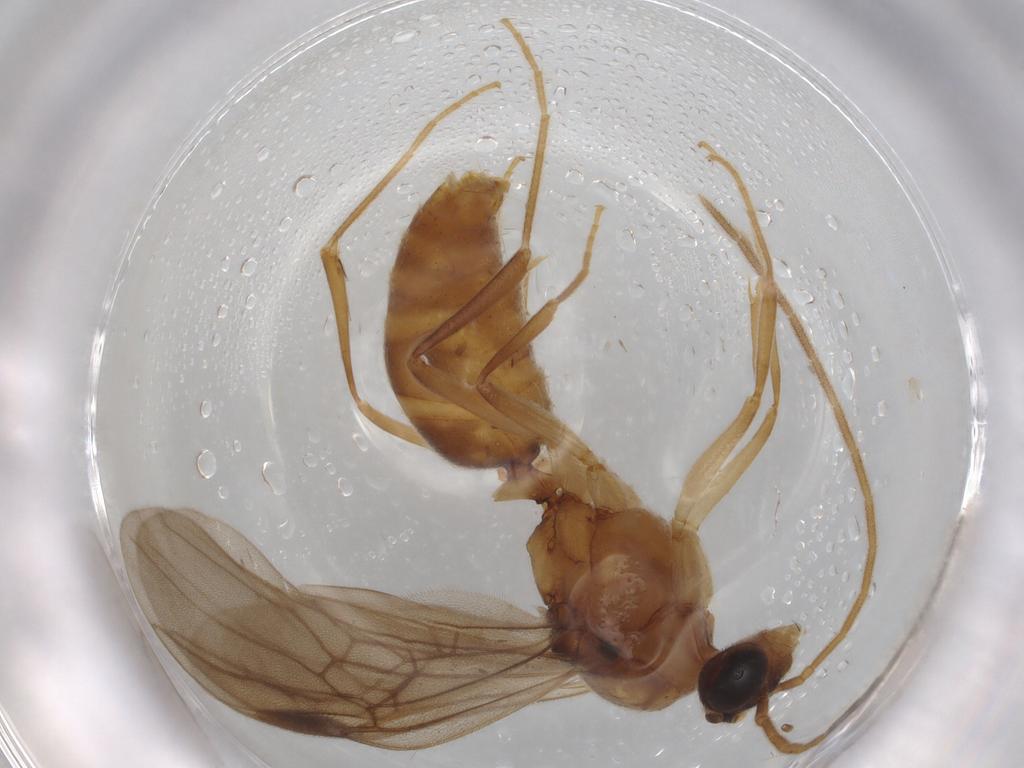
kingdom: Animalia
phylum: Arthropoda
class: Insecta
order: Hymenoptera
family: Formicidae
